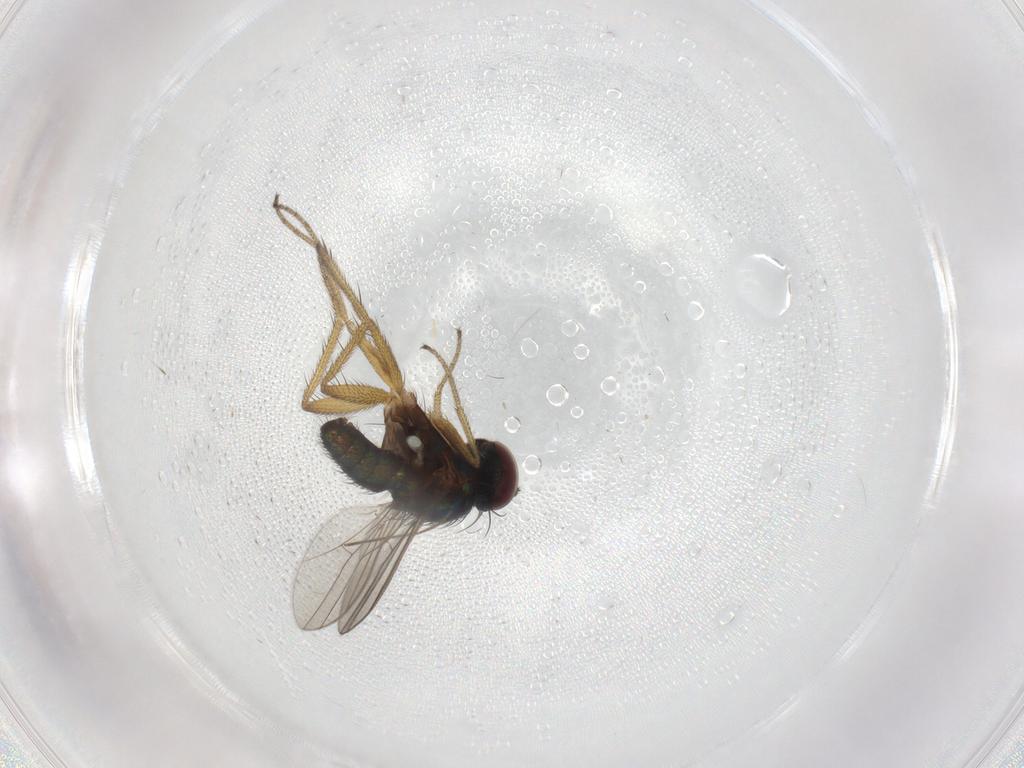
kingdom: Animalia
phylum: Arthropoda
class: Insecta
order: Diptera
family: Chironomidae
